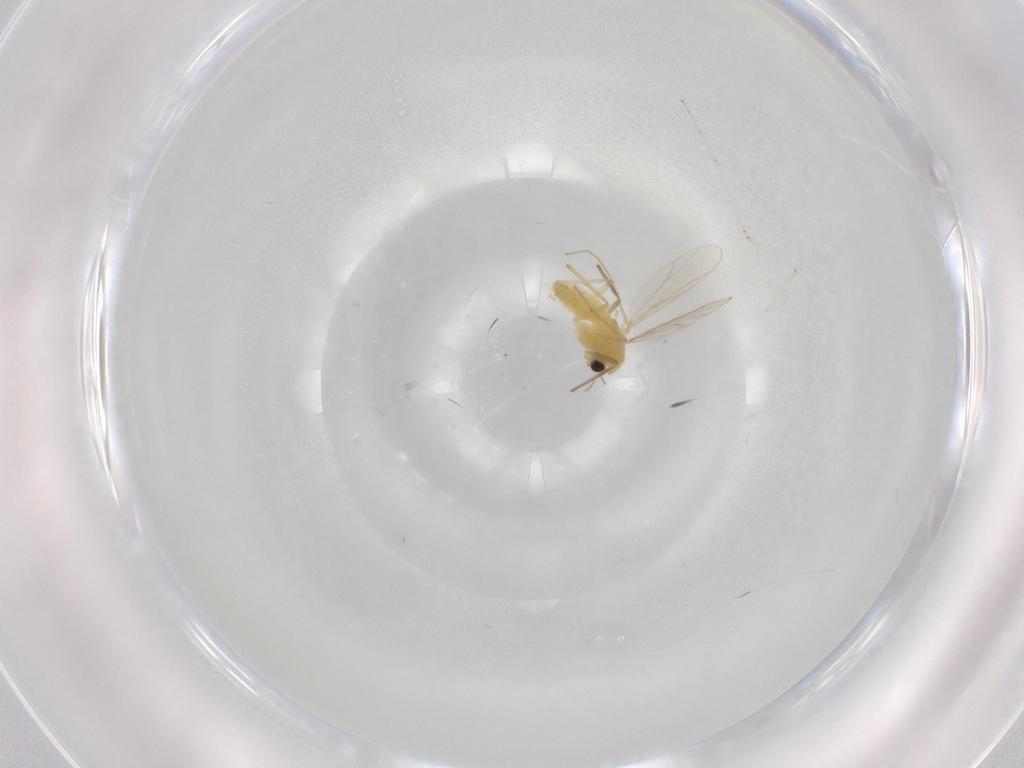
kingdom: Animalia
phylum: Arthropoda
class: Insecta
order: Diptera
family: Chironomidae
